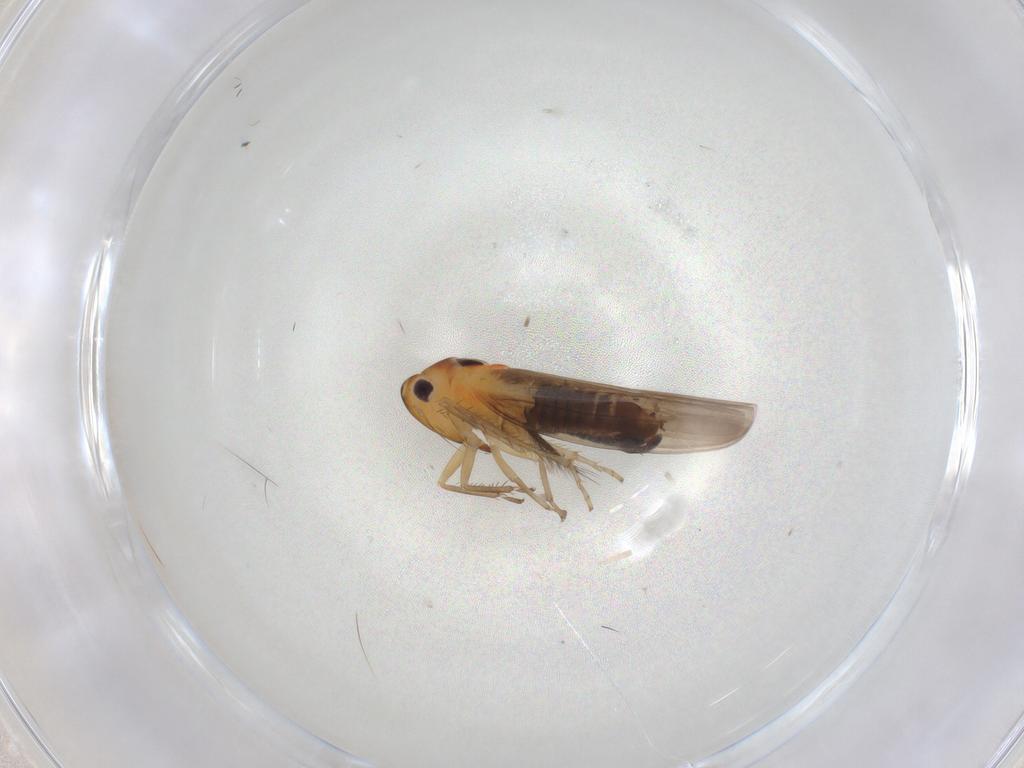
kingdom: Animalia
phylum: Arthropoda
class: Insecta
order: Hemiptera
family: Cicadellidae
